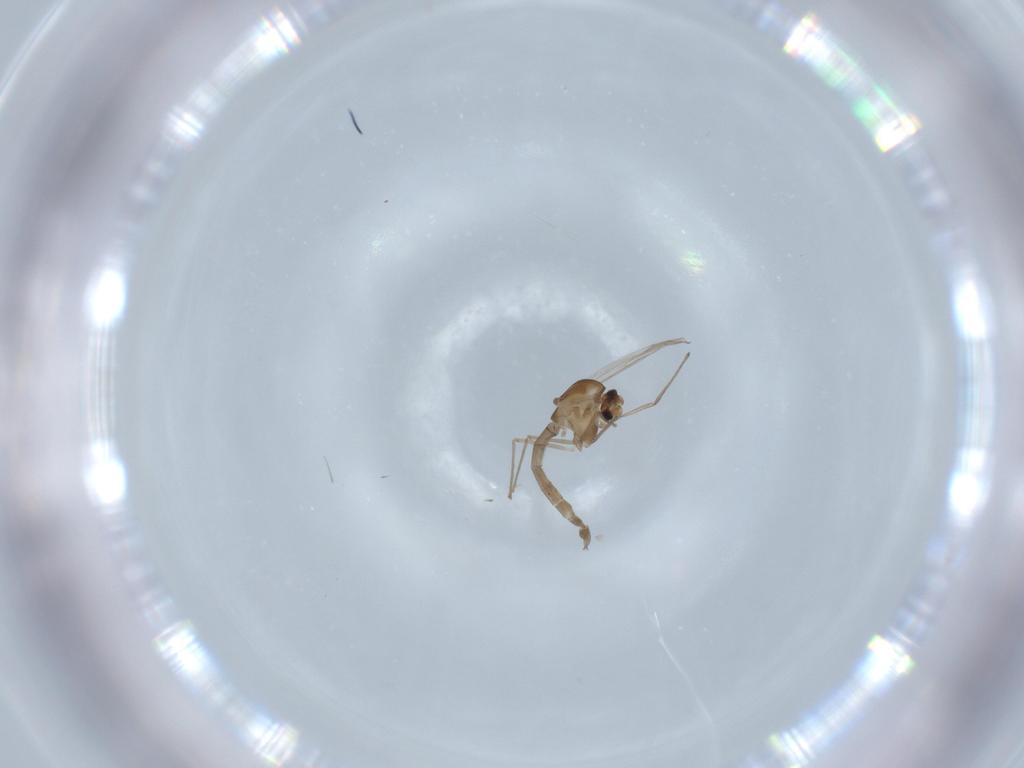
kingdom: Animalia
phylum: Arthropoda
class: Insecta
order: Diptera
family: Chironomidae
